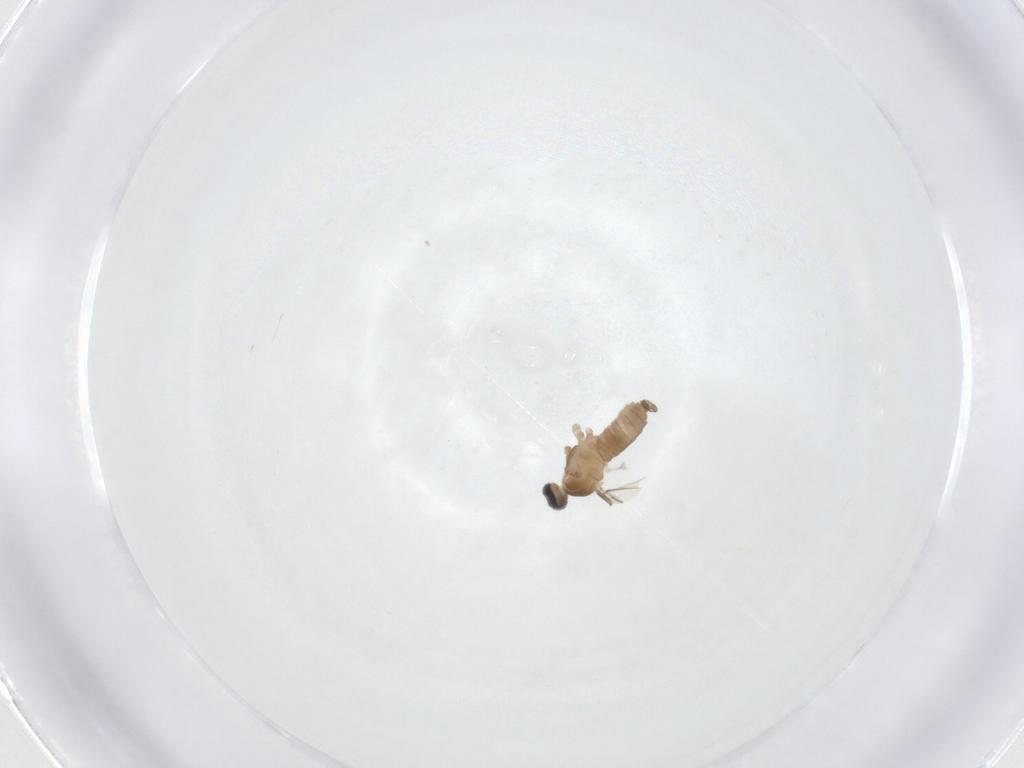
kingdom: Animalia
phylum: Arthropoda
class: Insecta
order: Diptera
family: Cecidomyiidae
